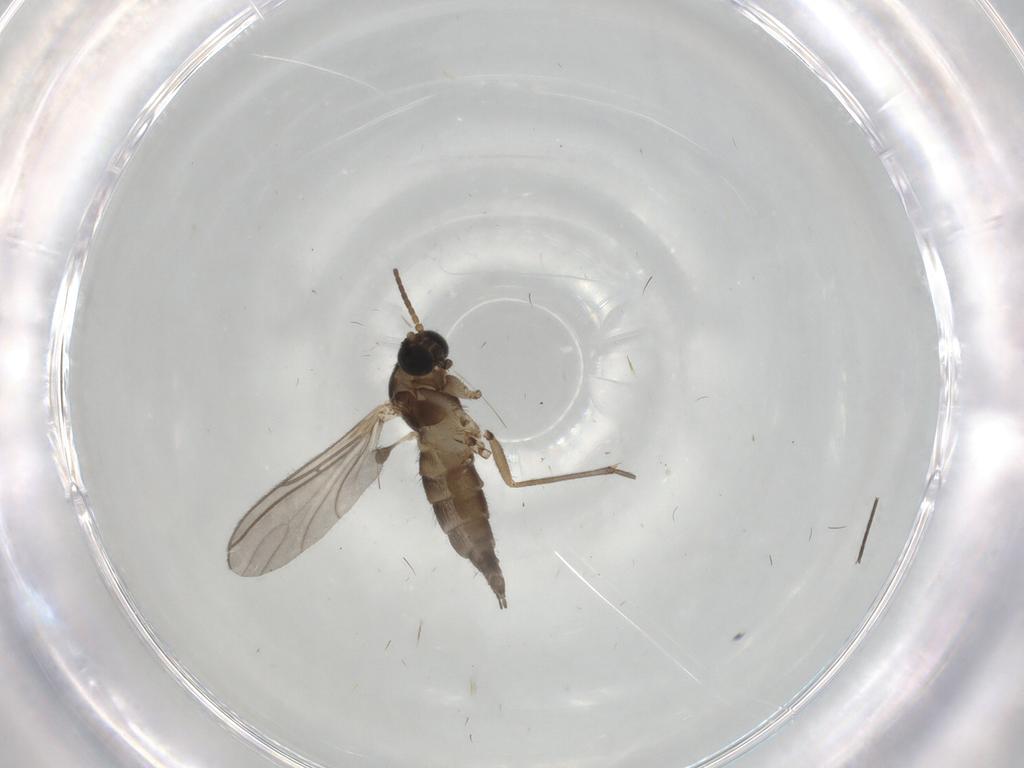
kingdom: Animalia
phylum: Arthropoda
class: Insecta
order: Diptera
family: Sciaridae
